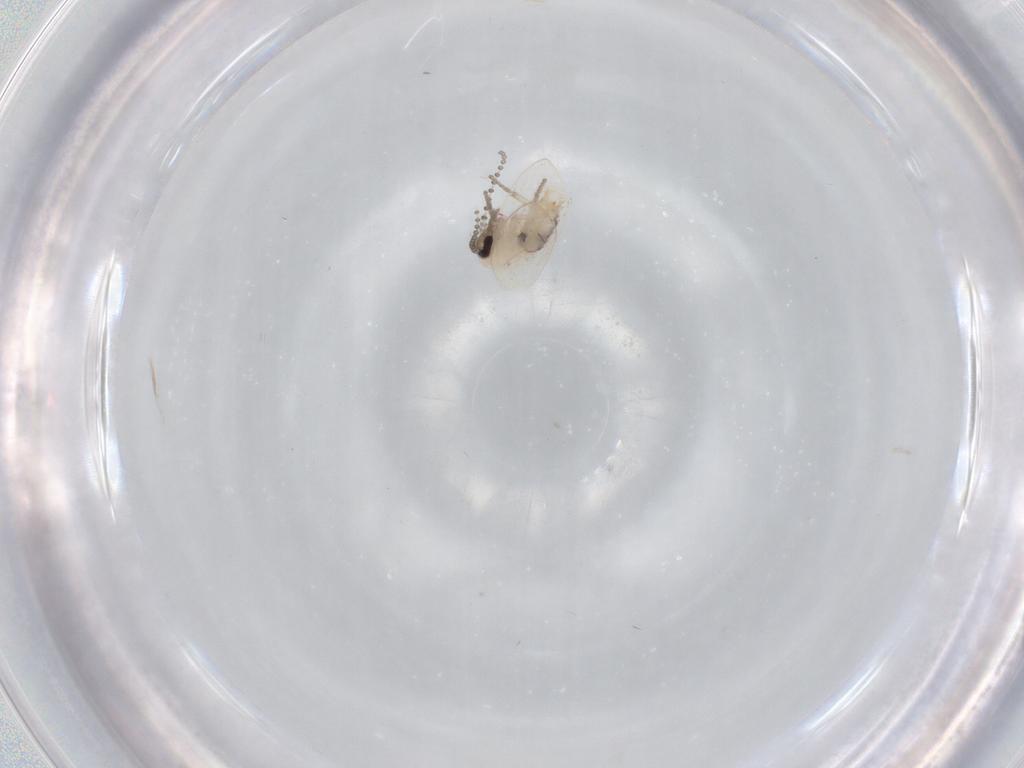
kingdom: Animalia
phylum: Arthropoda
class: Insecta
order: Diptera
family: Psychodidae
